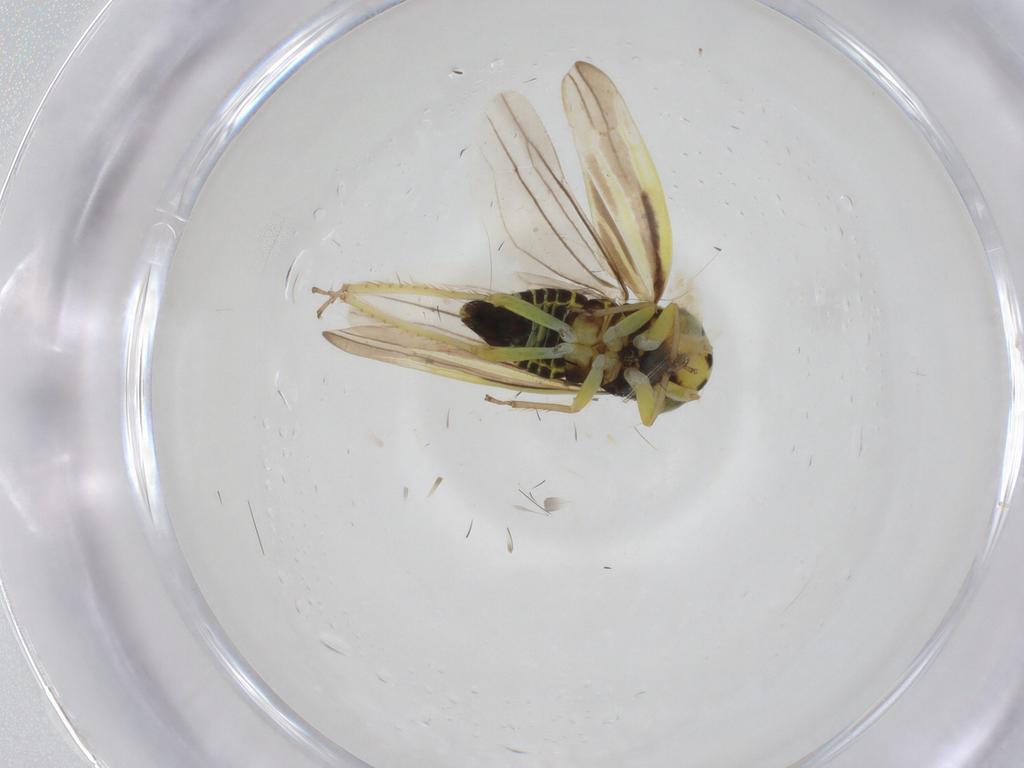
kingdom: Animalia
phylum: Arthropoda
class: Insecta
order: Hemiptera
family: Cicadellidae
